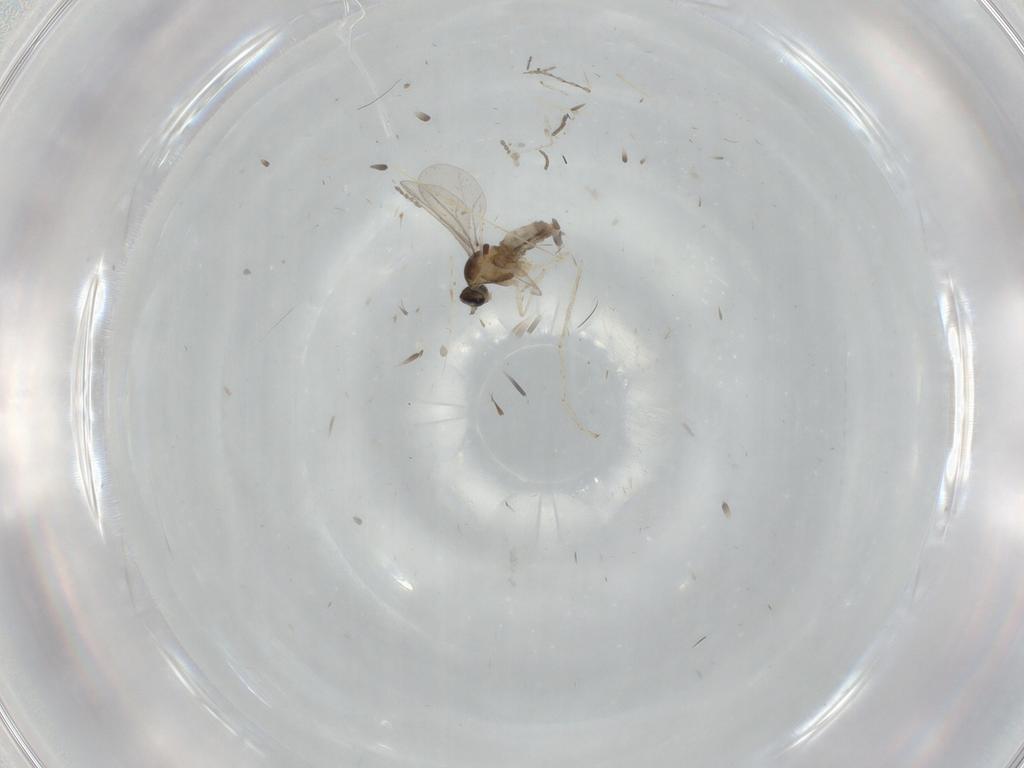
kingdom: Animalia
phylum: Arthropoda
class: Insecta
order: Diptera
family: Cecidomyiidae
